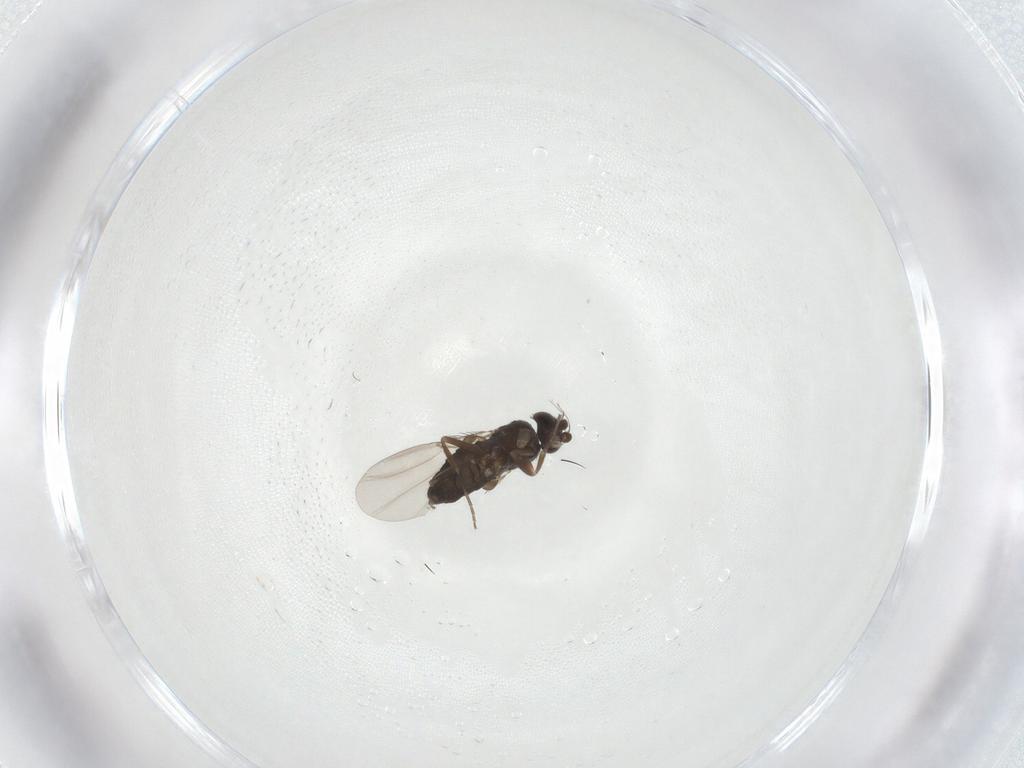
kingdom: Animalia
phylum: Arthropoda
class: Insecta
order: Diptera
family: Phoridae
